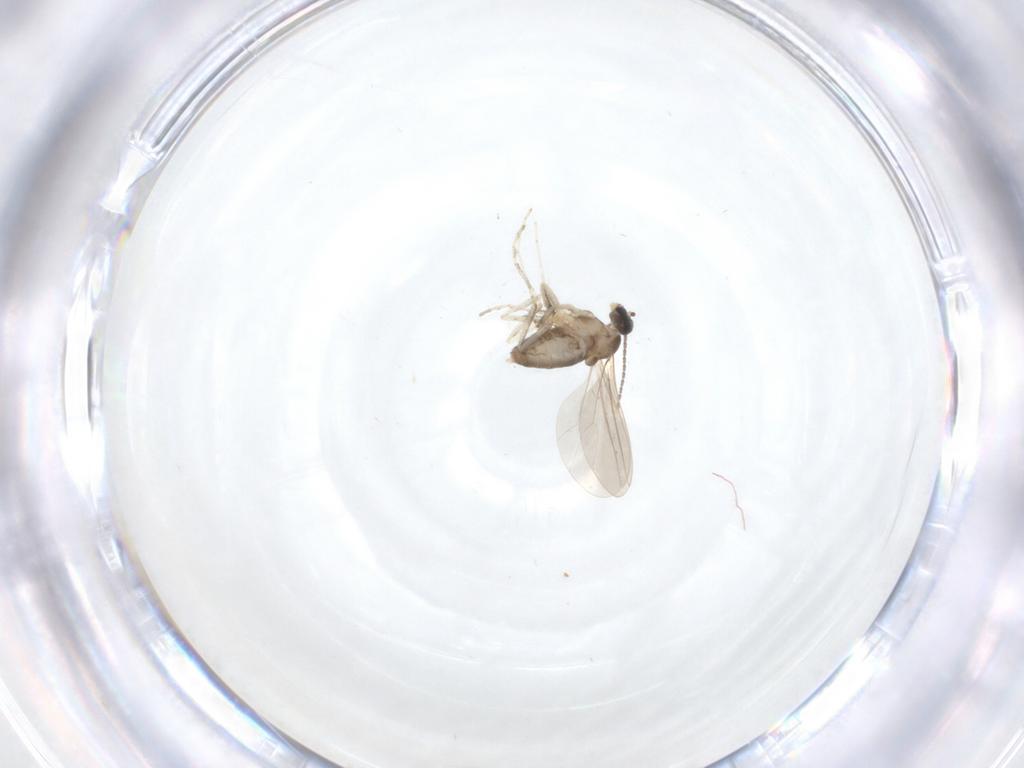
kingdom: Animalia
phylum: Arthropoda
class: Insecta
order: Diptera
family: Cecidomyiidae
